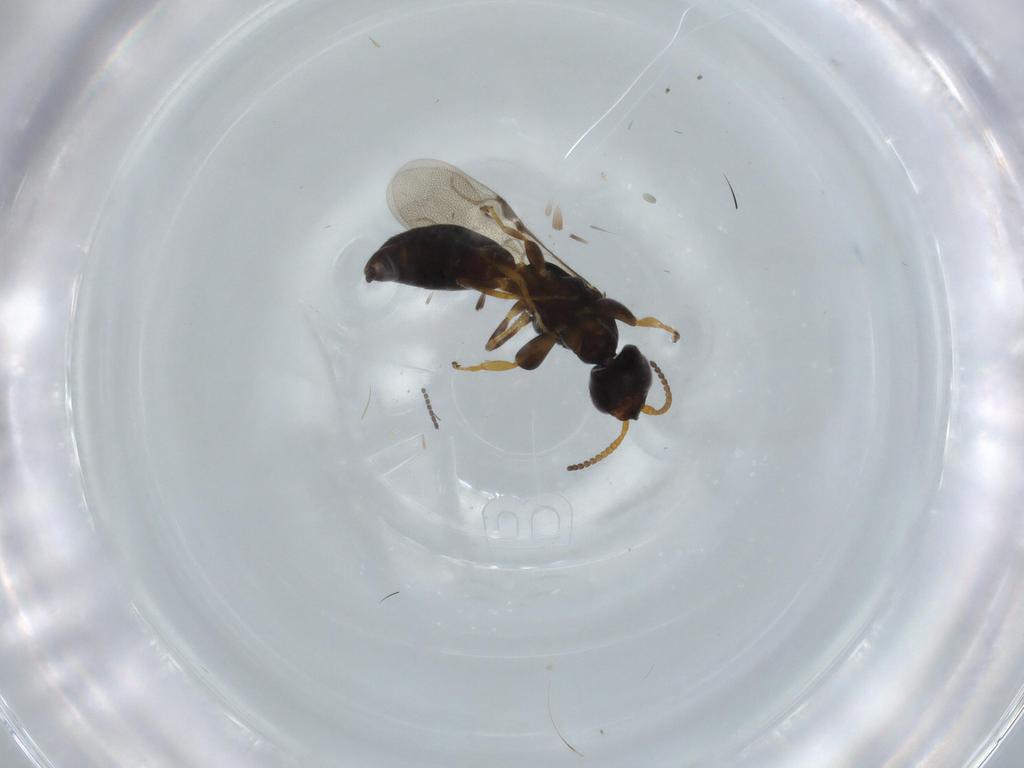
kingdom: Animalia
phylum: Arthropoda
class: Insecta
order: Hymenoptera
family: Bethylidae
